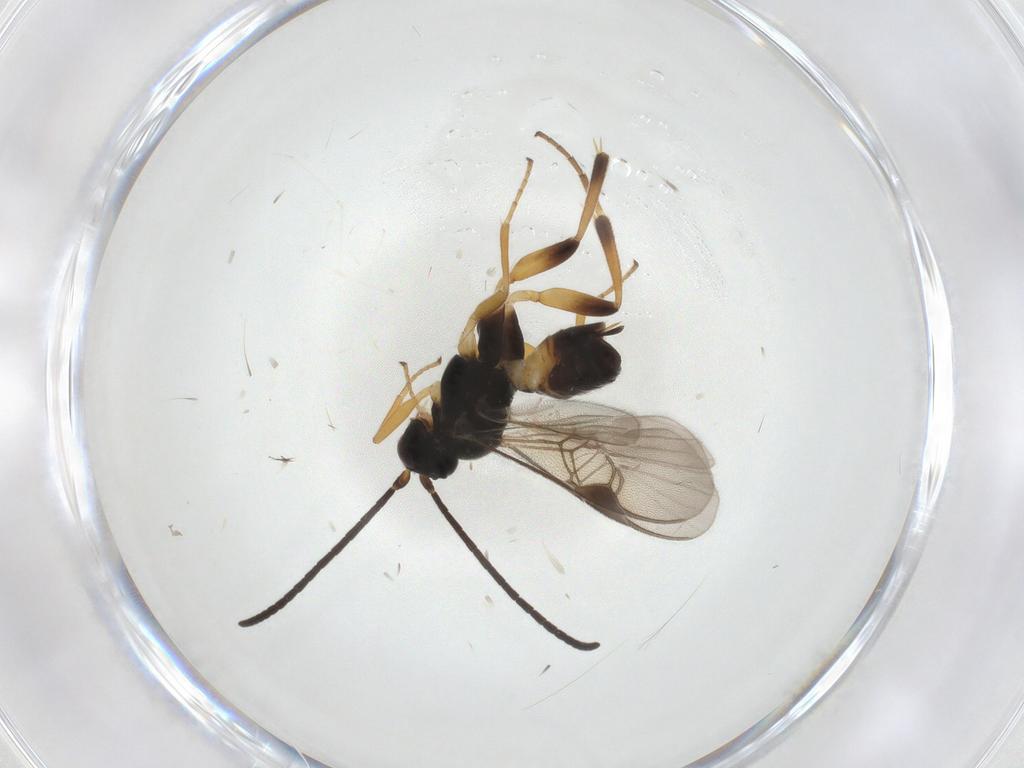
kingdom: Animalia
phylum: Arthropoda
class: Insecta
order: Hymenoptera
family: Braconidae
